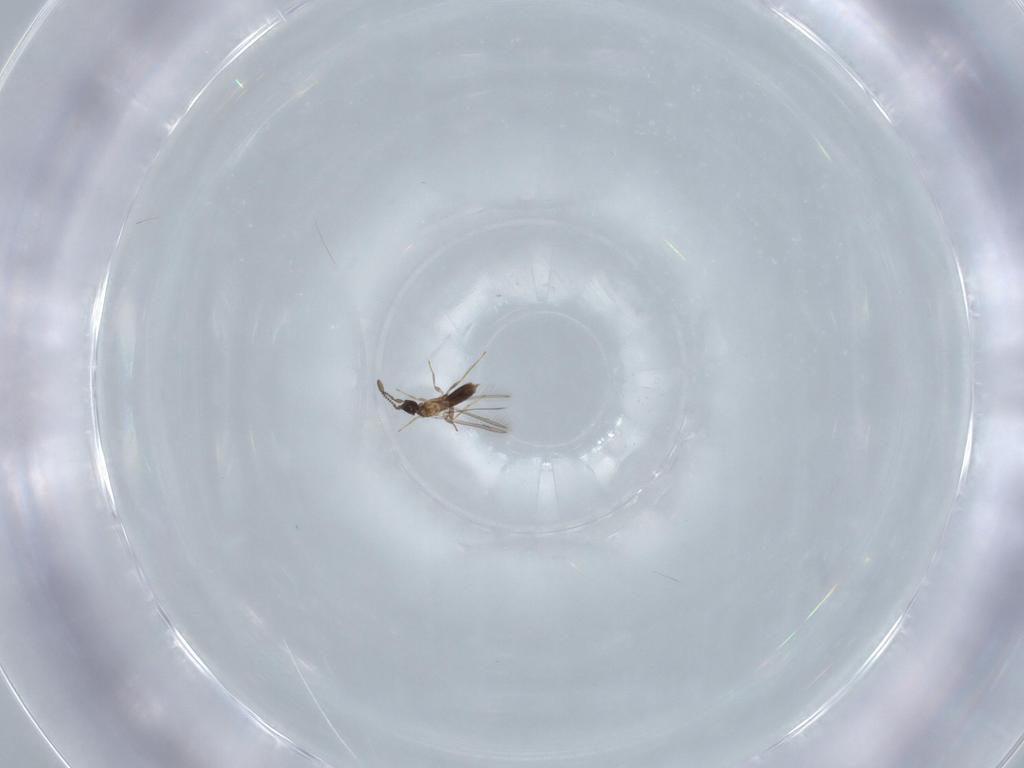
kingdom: Animalia
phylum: Arthropoda
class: Insecta
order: Hymenoptera
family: Mymaridae
